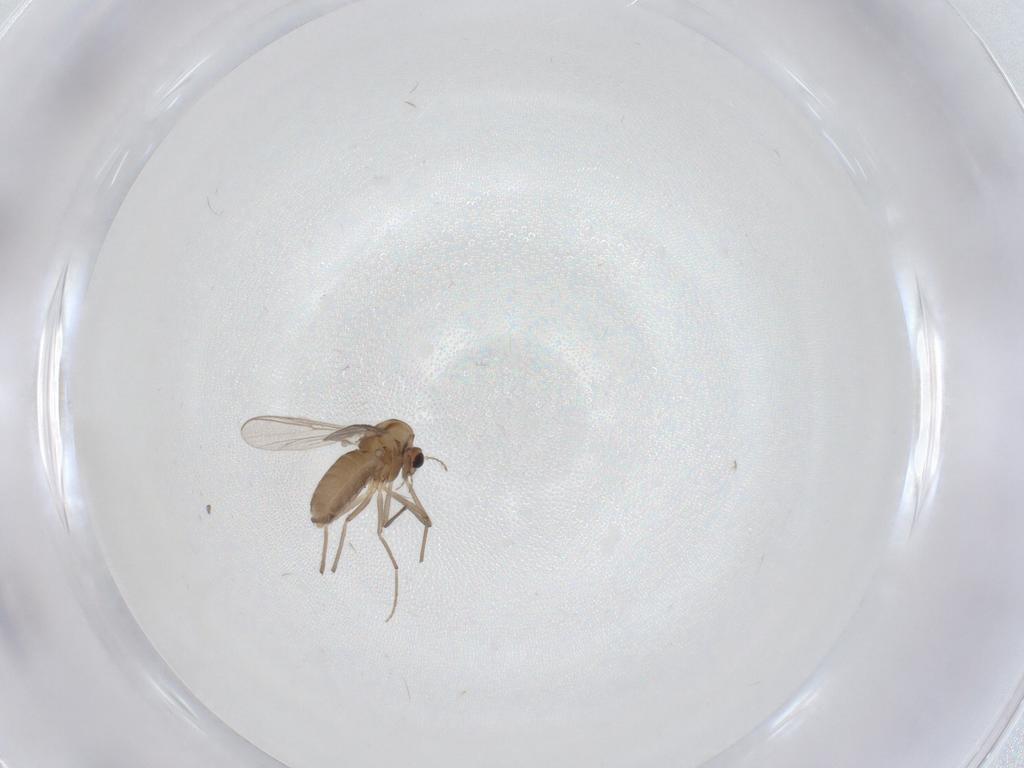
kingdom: Animalia
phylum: Arthropoda
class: Insecta
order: Diptera
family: Chironomidae
